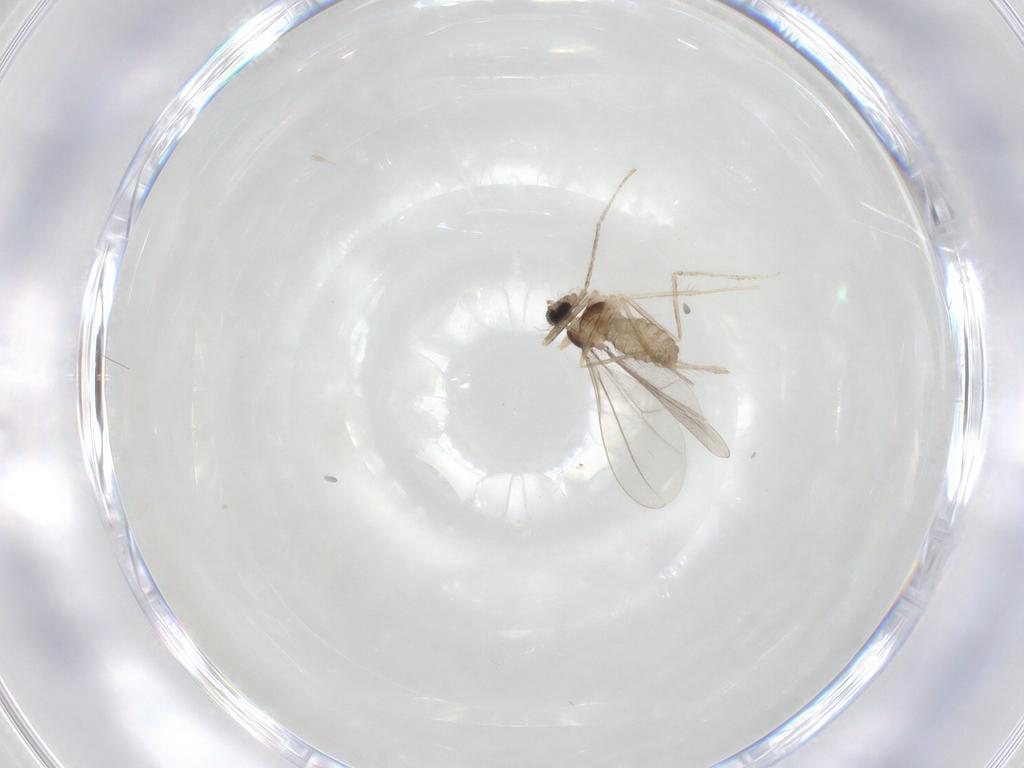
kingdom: Animalia
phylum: Arthropoda
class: Insecta
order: Diptera
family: Cecidomyiidae
